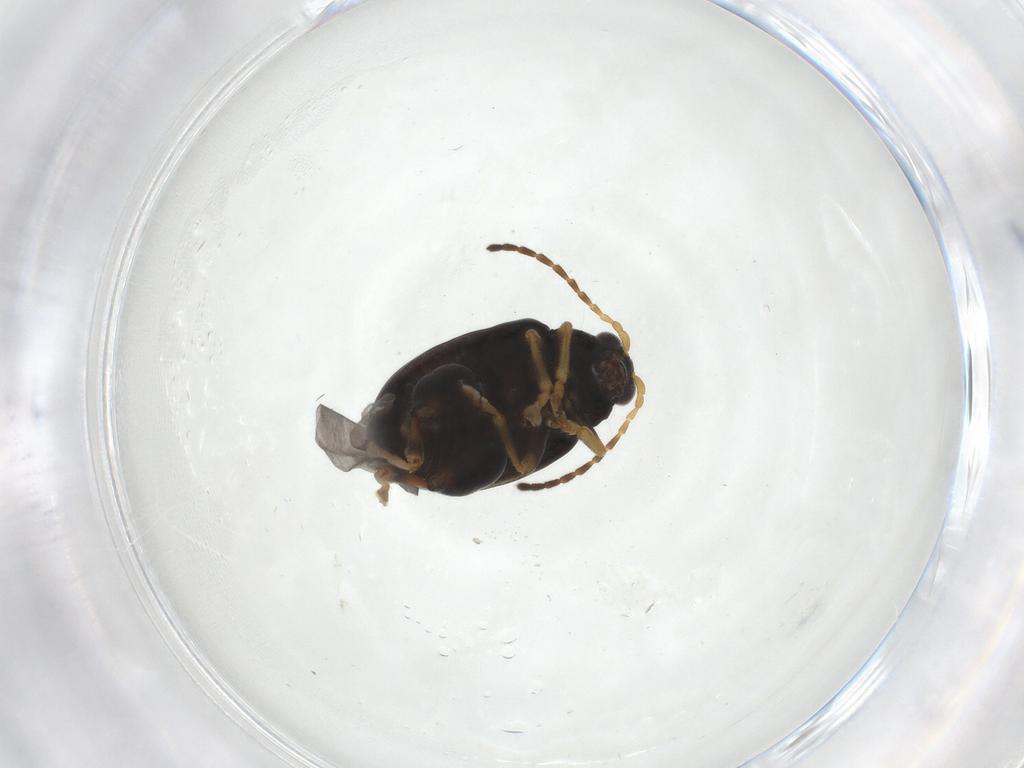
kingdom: Animalia
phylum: Arthropoda
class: Insecta
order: Coleoptera
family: Chrysomelidae
